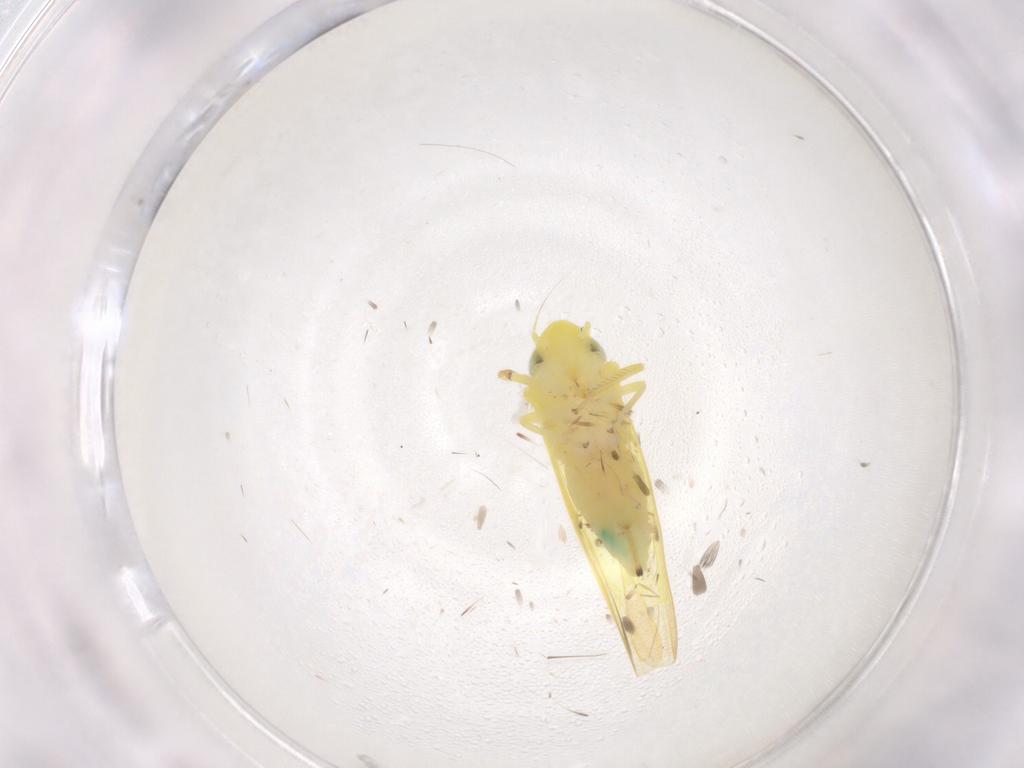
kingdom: Animalia
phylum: Arthropoda
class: Insecta
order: Hemiptera
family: Cicadellidae
